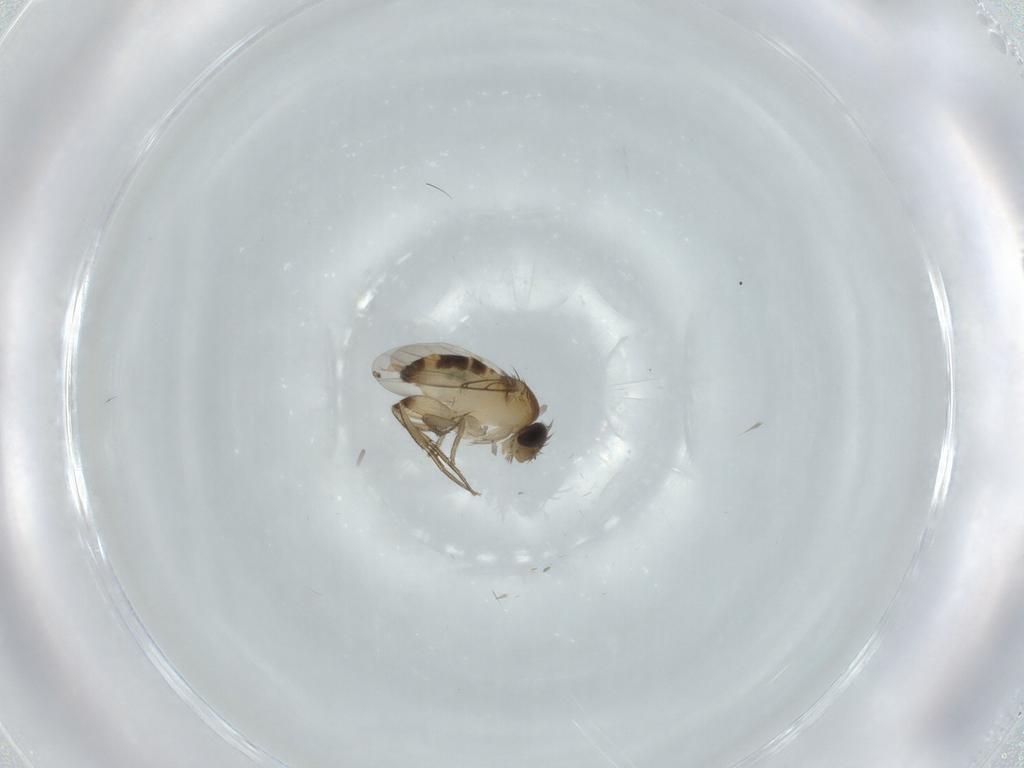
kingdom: Animalia
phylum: Arthropoda
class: Insecta
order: Diptera
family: Phoridae
